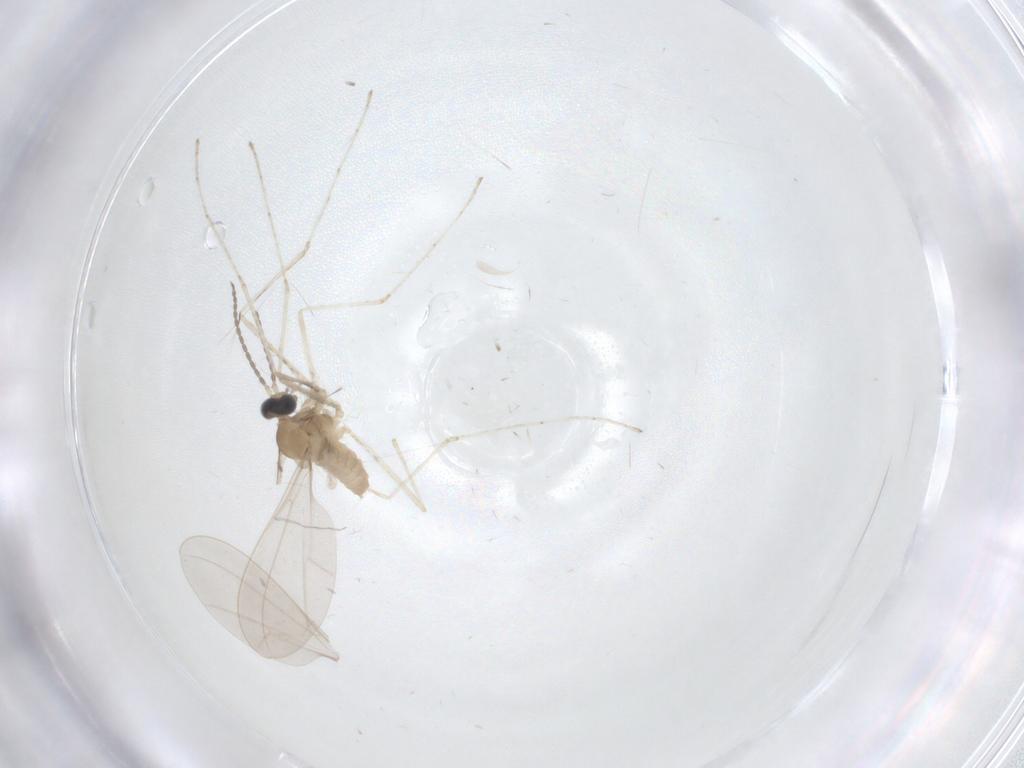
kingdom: Animalia
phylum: Arthropoda
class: Insecta
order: Diptera
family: Cecidomyiidae
